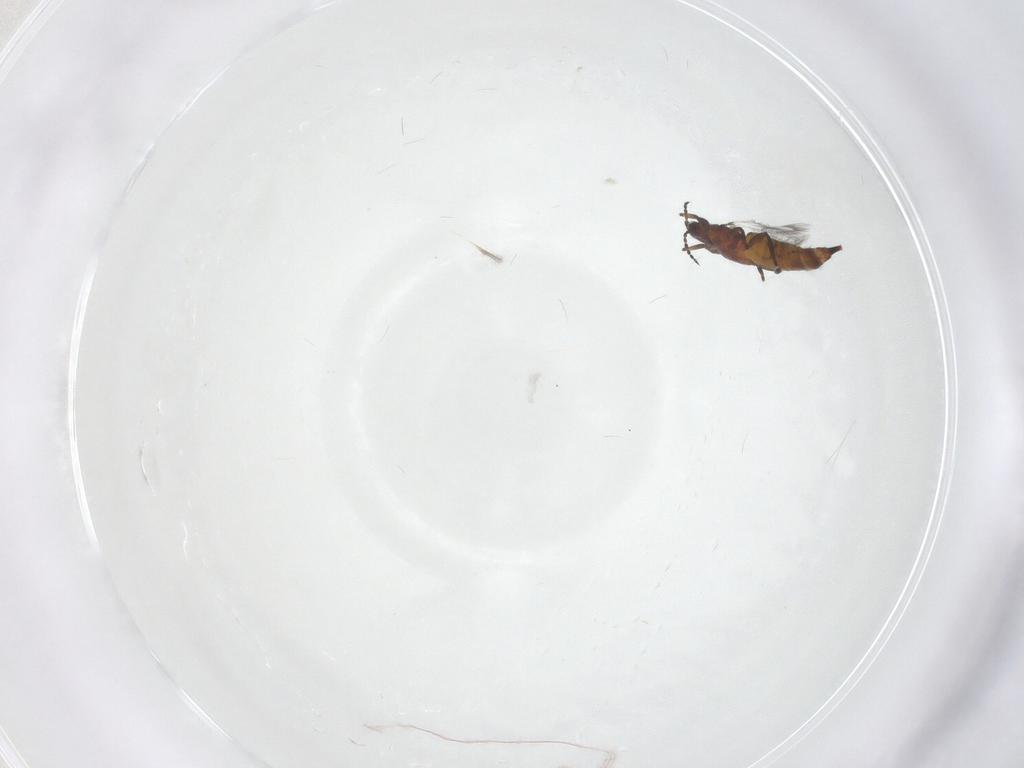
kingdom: Animalia
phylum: Arthropoda
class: Insecta
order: Thysanoptera
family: Phlaeothripidae
